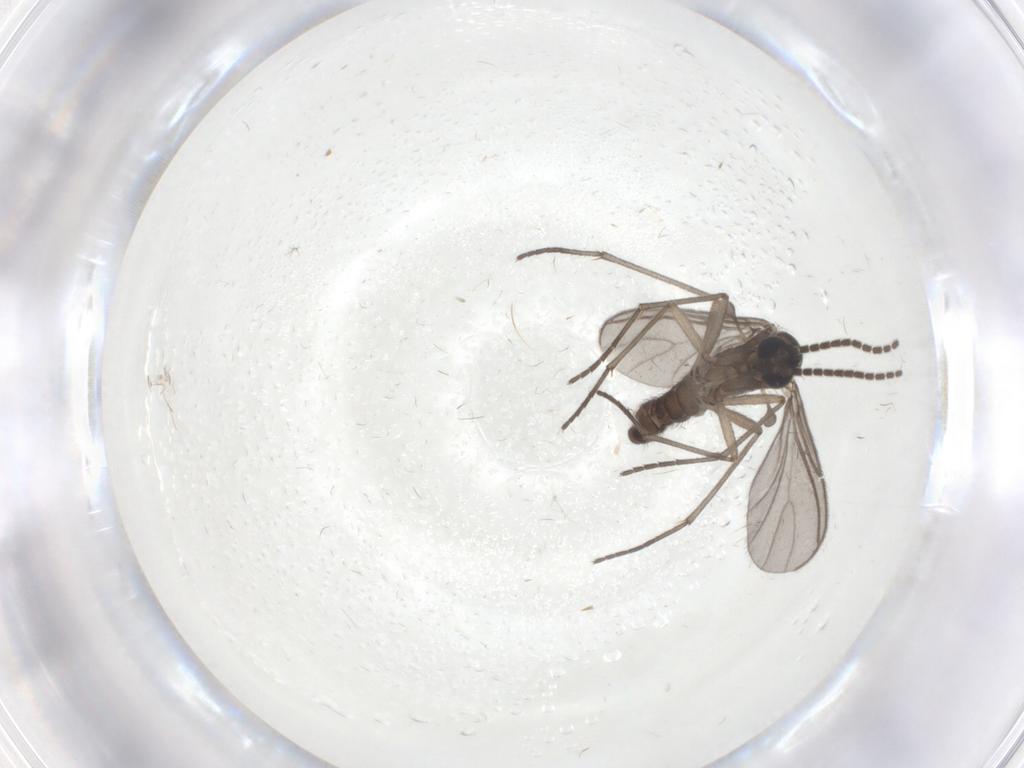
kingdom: Animalia
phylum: Arthropoda
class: Insecta
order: Diptera
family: Sciaridae
